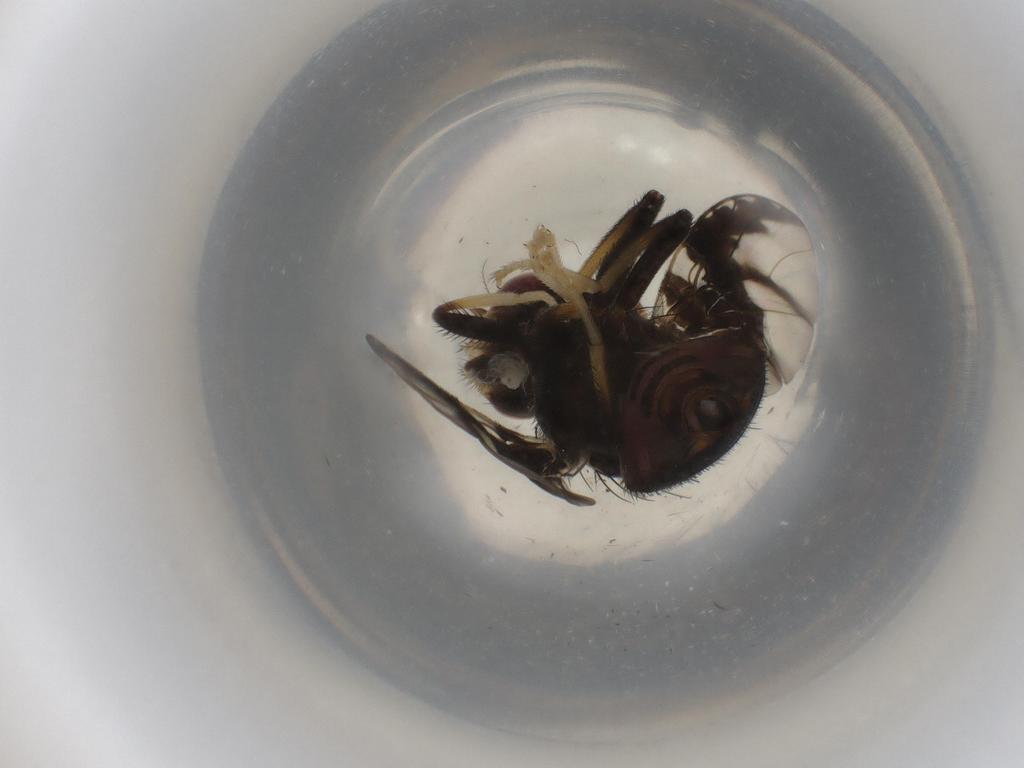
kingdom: Animalia
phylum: Arthropoda
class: Insecta
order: Diptera
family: Tephritidae
